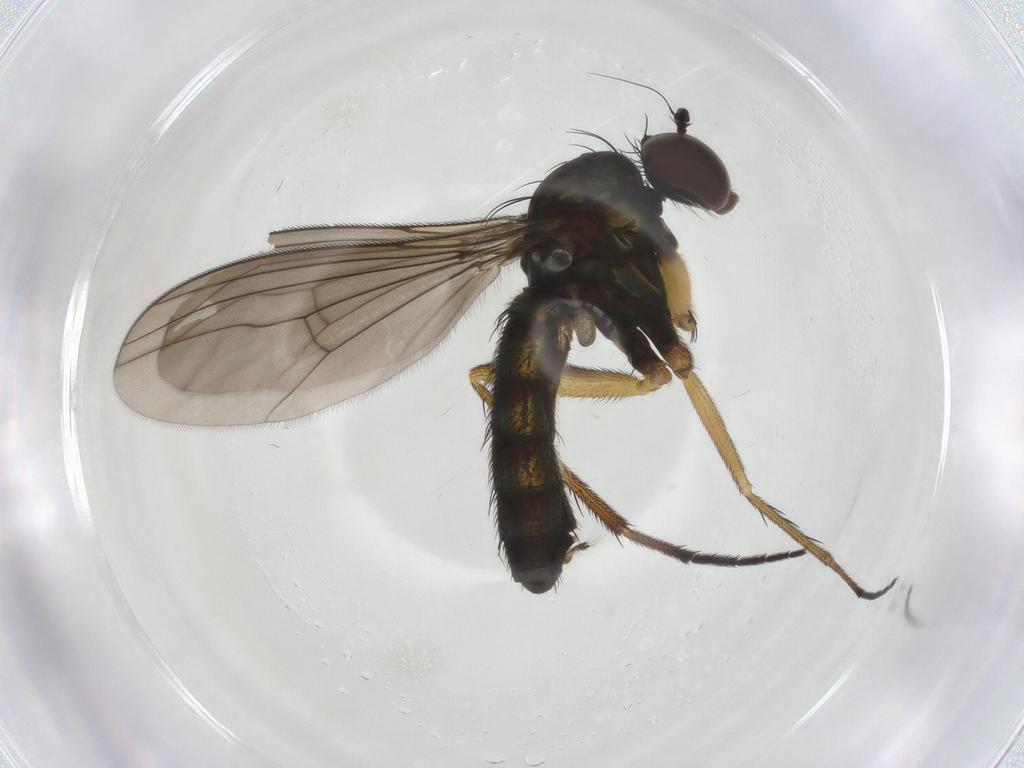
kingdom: Animalia
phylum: Arthropoda
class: Insecta
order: Diptera
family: Dolichopodidae
